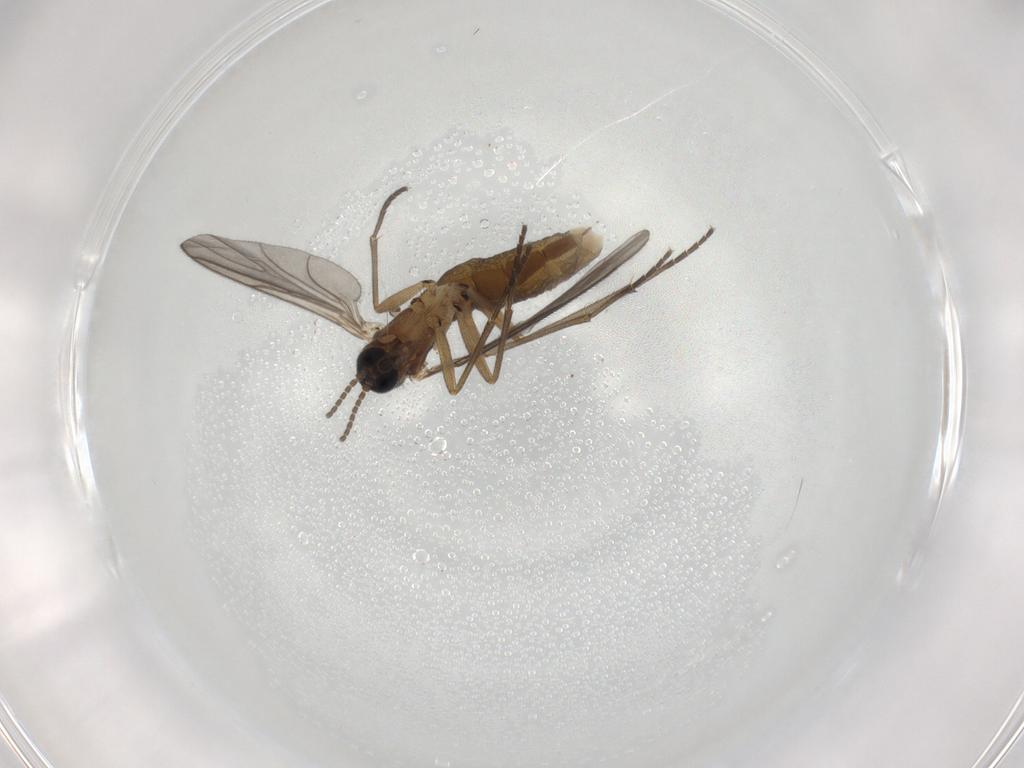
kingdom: Animalia
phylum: Arthropoda
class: Insecta
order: Diptera
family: Sciaridae
